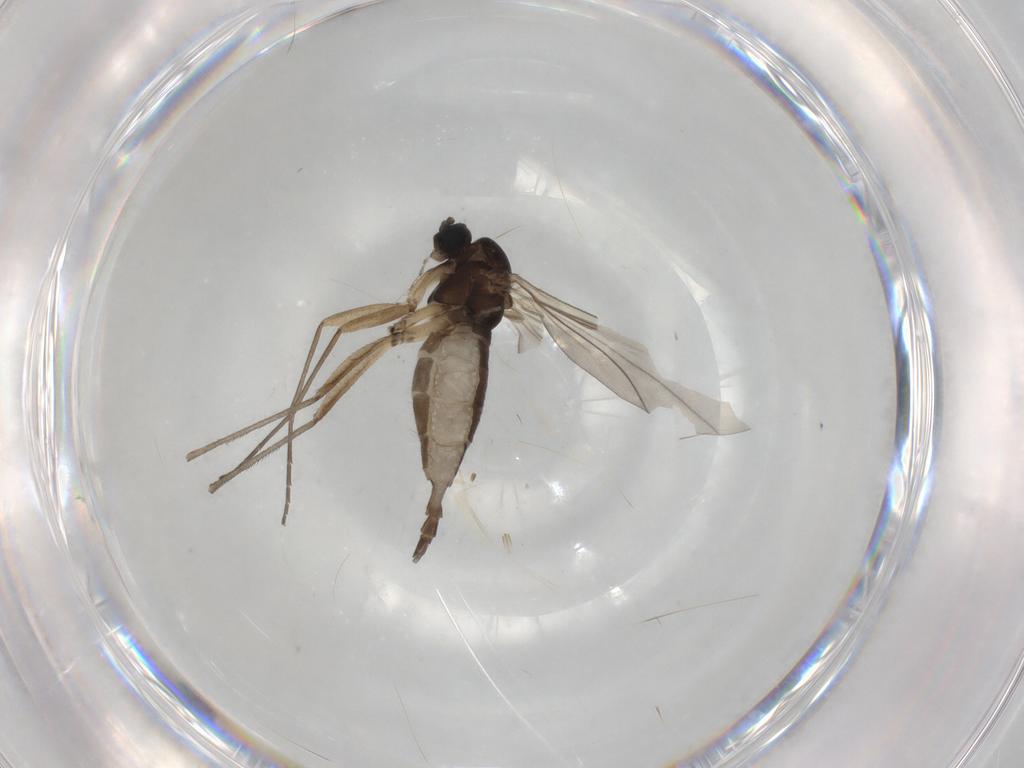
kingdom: Animalia
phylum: Arthropoda
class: Insecta
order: Diptera
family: Sciaridae
